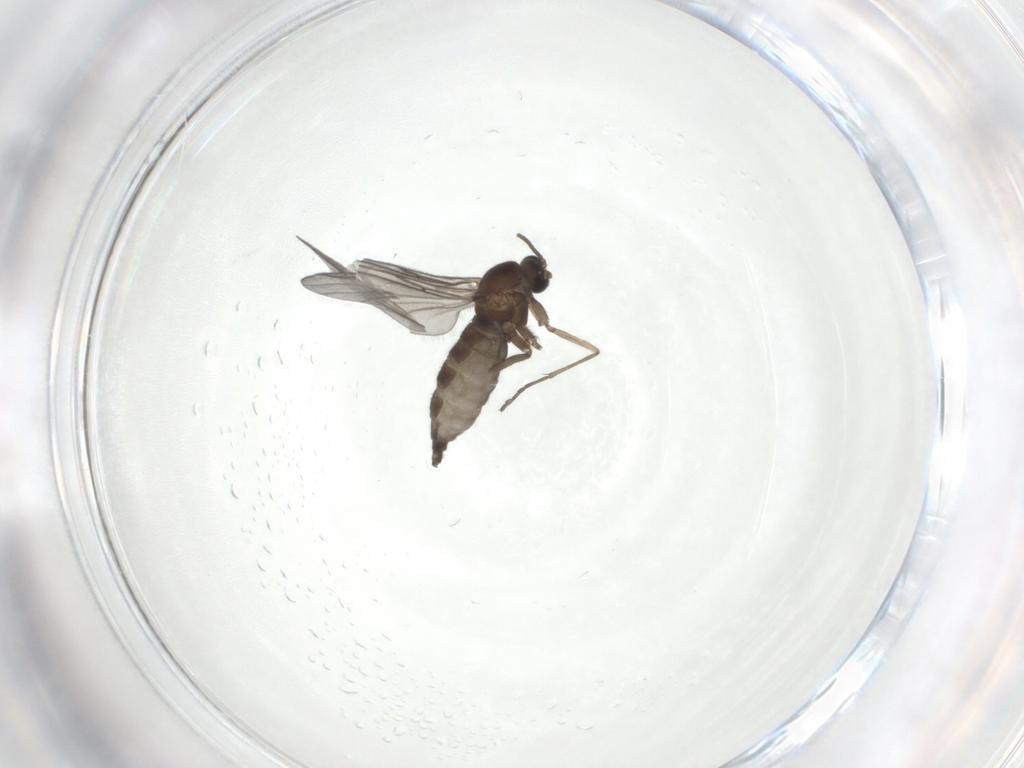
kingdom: Animalia
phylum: Arthropoda
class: Insecta
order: Diptera
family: Sciaridae
